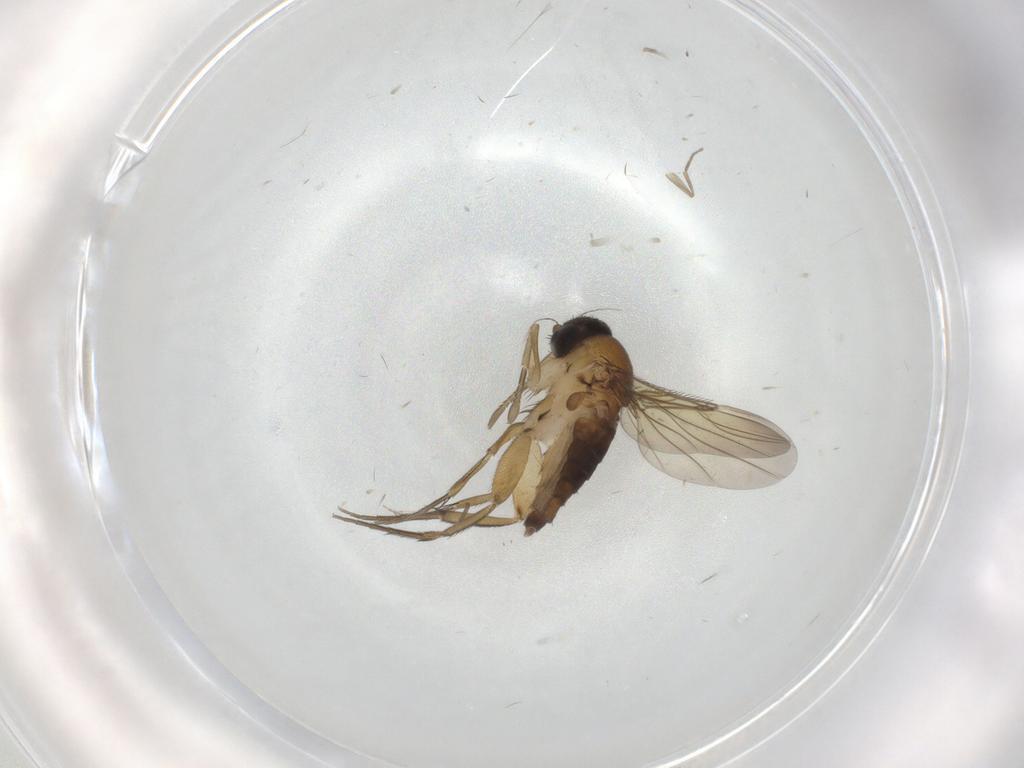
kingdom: Animalia
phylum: Arthropoda
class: Insecta
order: Diptera
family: Phoridae
